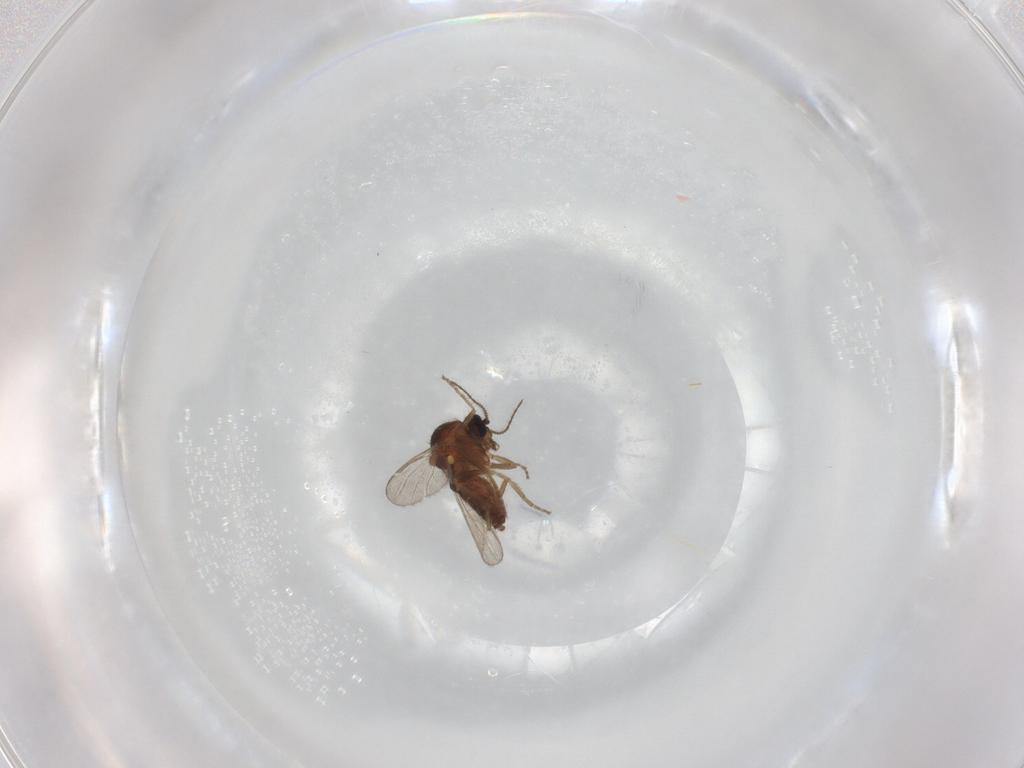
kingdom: Animalia
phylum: Arthropoda
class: Insecta
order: Diptera
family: Ceratopogonidae
